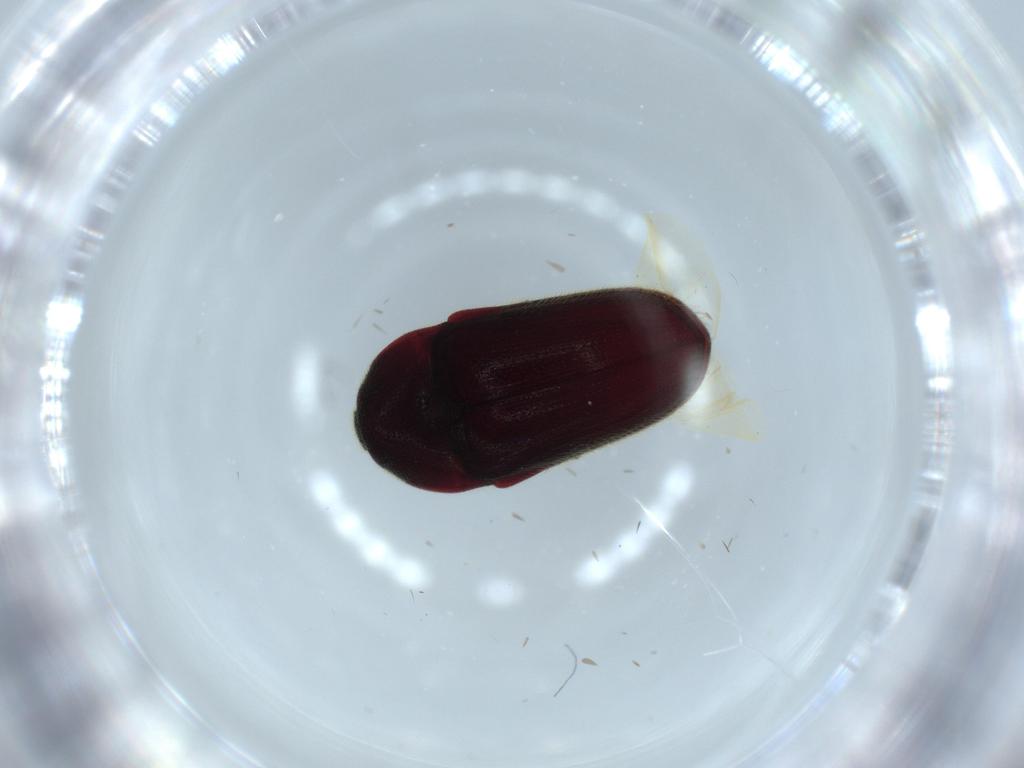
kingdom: Animalia
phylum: Arthropoda
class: Insecta
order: Coleoptera
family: Throscidae
